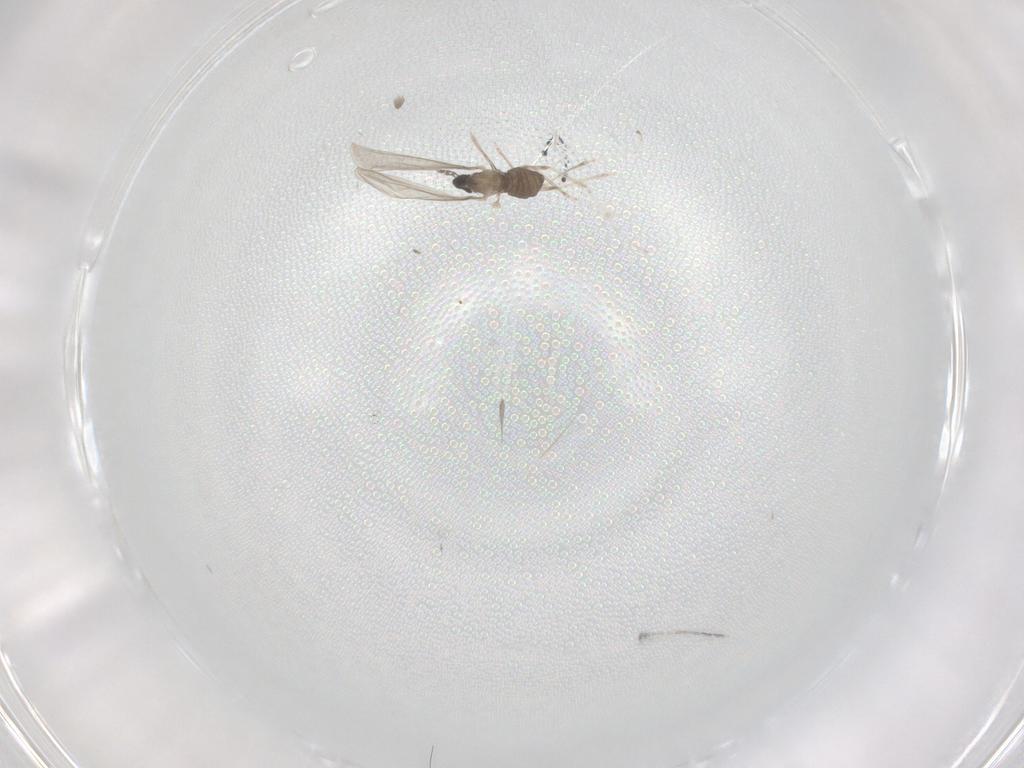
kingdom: Animalia
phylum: Arthropoda
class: Insecta
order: Diptera
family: Cecidomyiidae
